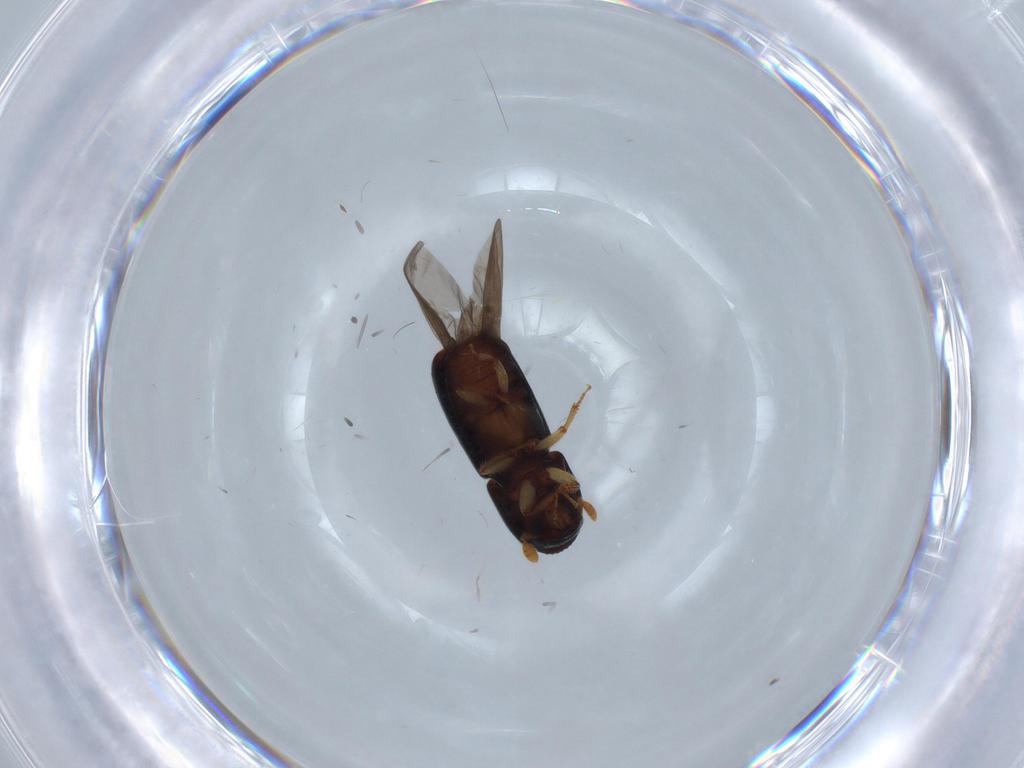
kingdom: Animalia
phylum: Arthropoda
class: Insecta
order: Coleoptera
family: Curculionidae
